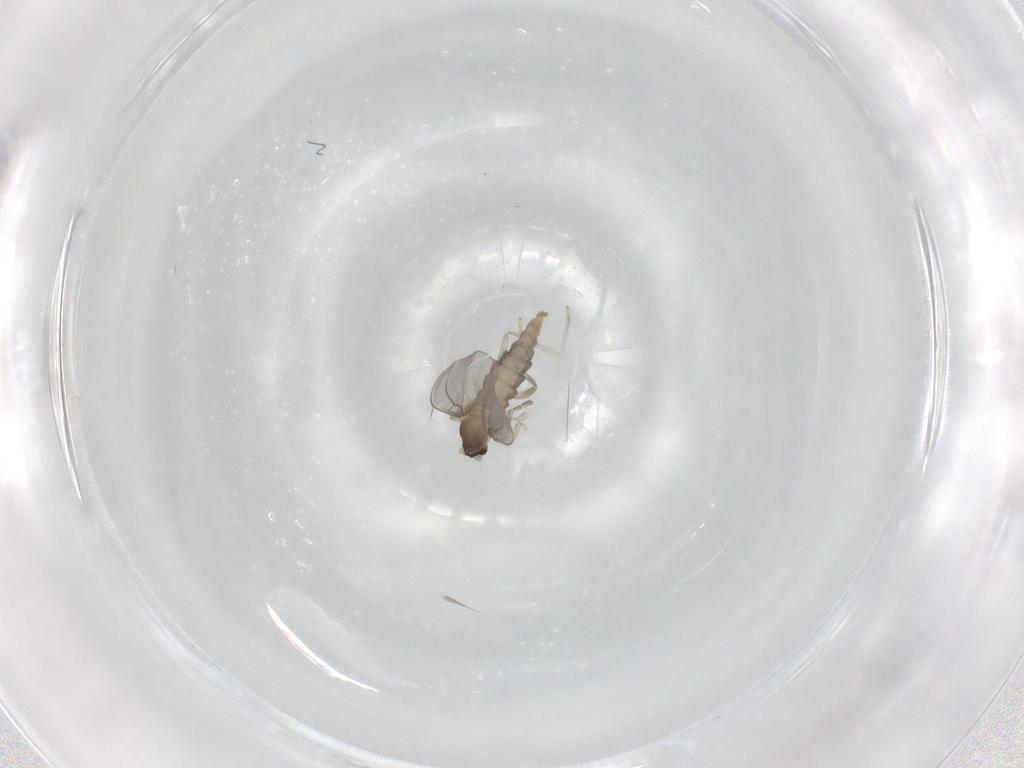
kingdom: Animalia
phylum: Arthropoda
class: Insecta
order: Diptera
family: Cecidomyiidae
